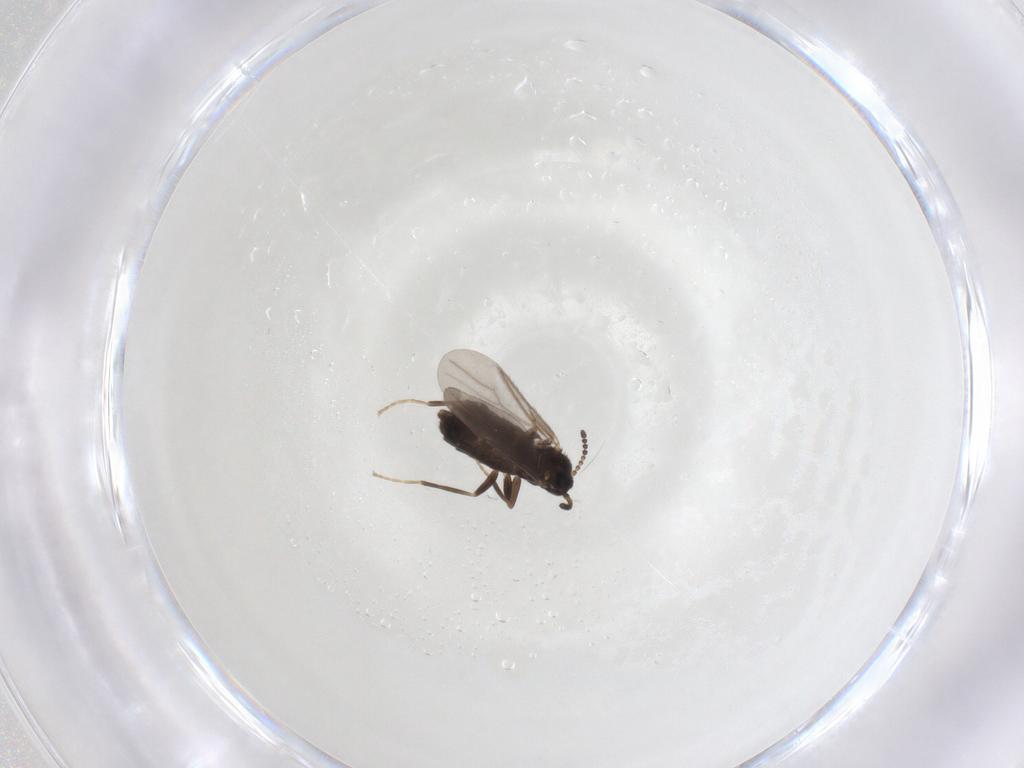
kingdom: Animalia
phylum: Arthropoda
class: Insecta
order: Diptera
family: Scatopsidae
